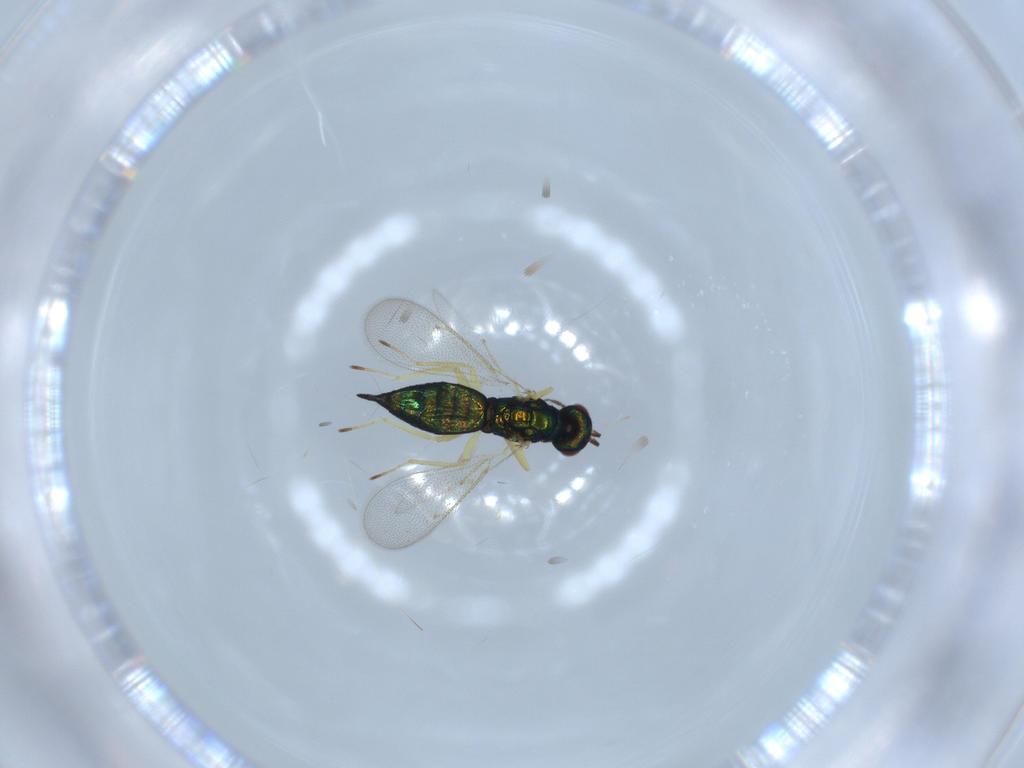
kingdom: Animalia
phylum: Arthropoda
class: Insecta
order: Hymenoptera
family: Eulophidae
